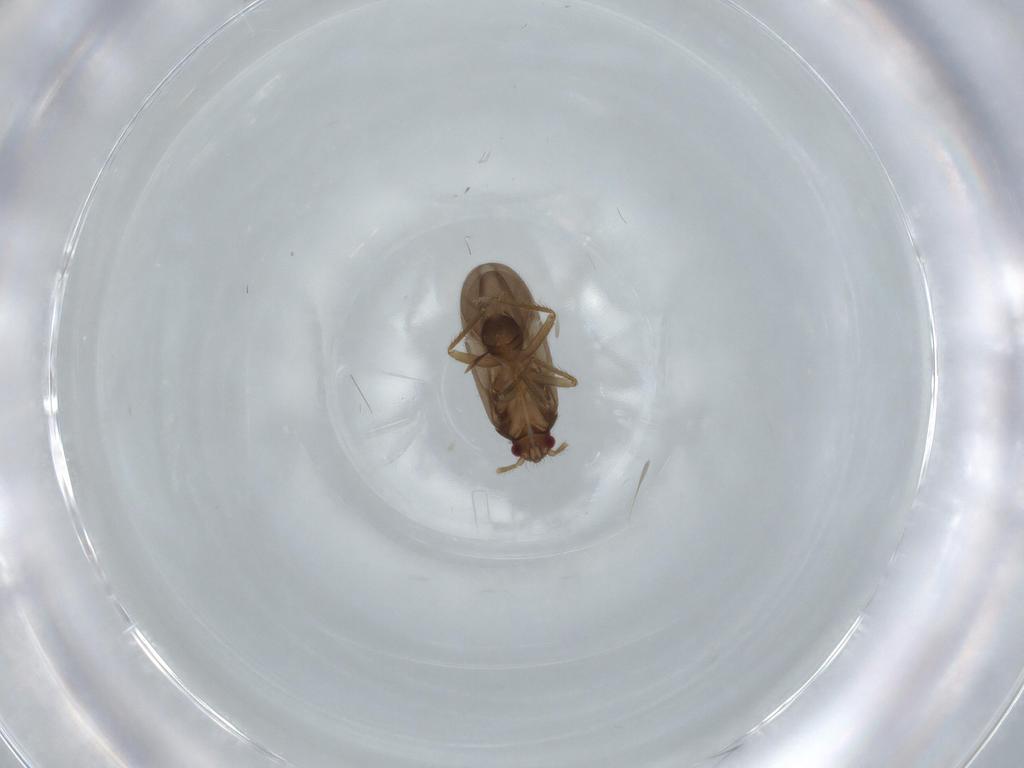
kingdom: Animalia
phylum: Arthropoda
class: Insecta
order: Hemiptera
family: Ceratocombidae
